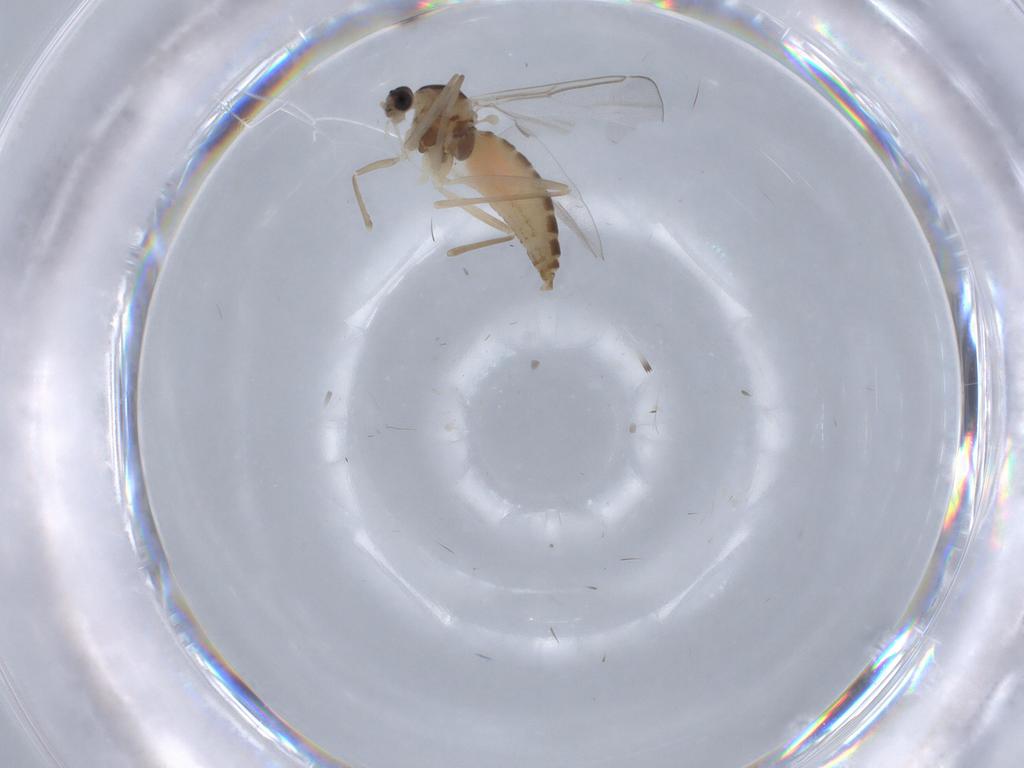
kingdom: Animalia
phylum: Arthropoda
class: Insecta
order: Diptera
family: Cecidomyiidae
